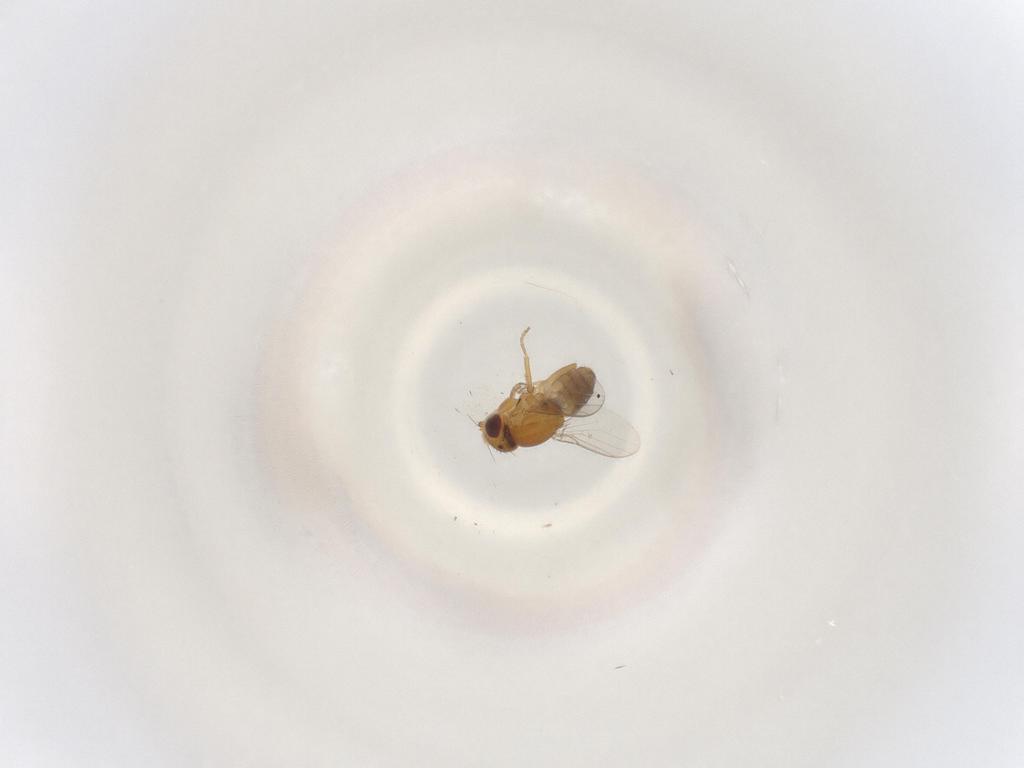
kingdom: Animalia
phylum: Arthropoda
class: Insecta
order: Diptera
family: Chloropidae
